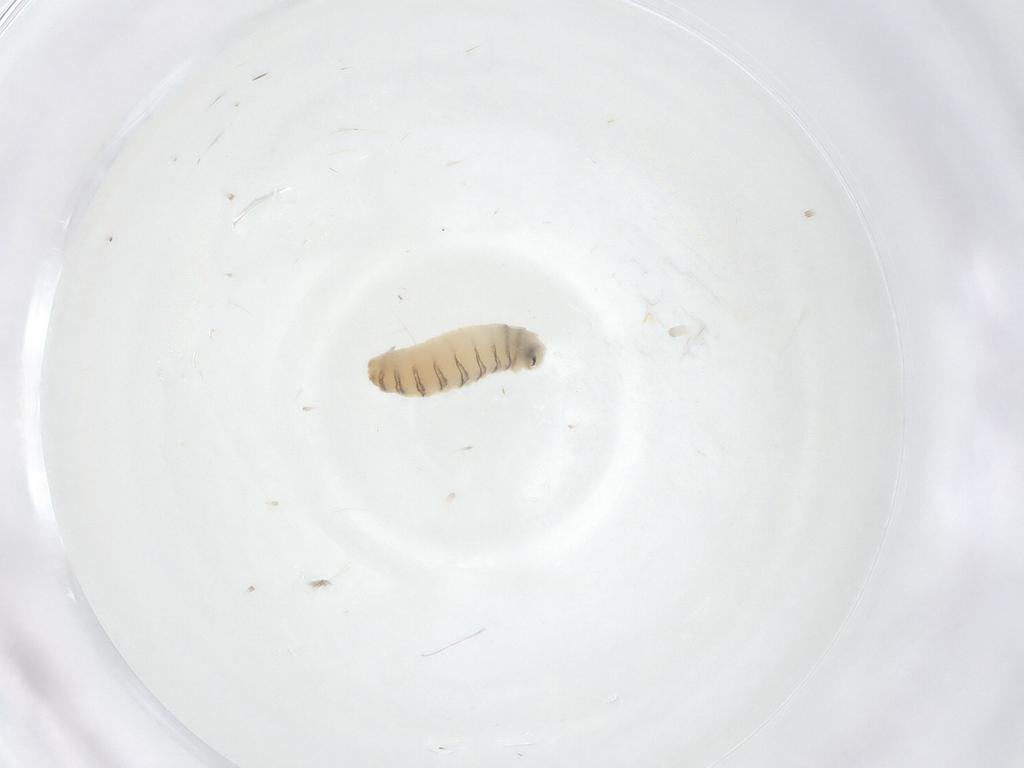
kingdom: Animalia
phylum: Arthropoda
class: Insecta
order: Diptera
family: Sarcophagidae
